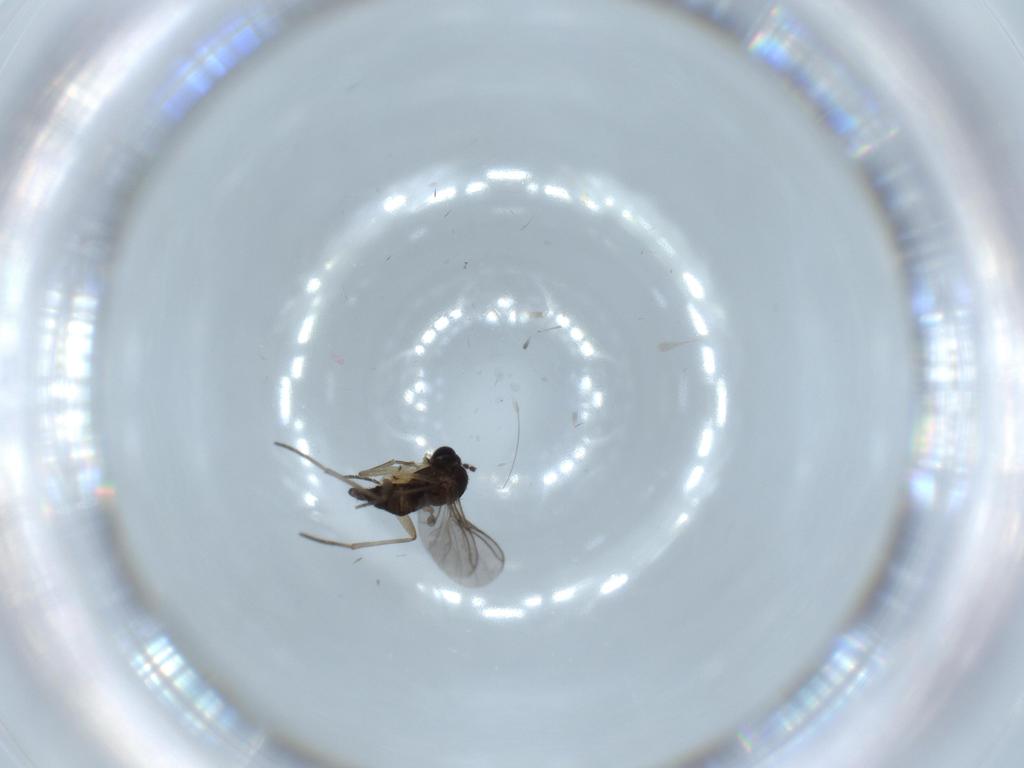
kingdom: Animalia
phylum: Arthropoda
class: Insecta
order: Diptera
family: Sciaridae
